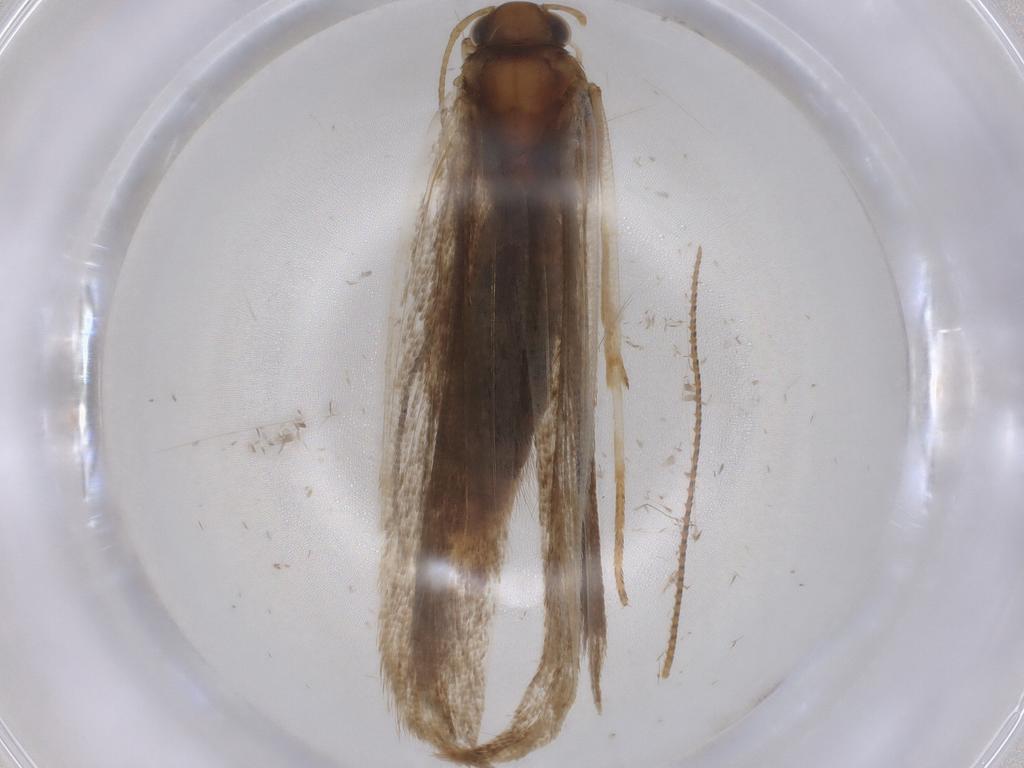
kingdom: Animalia
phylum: Arthropoda
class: Insecta
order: Lepidoptera
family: Gelechiidae
